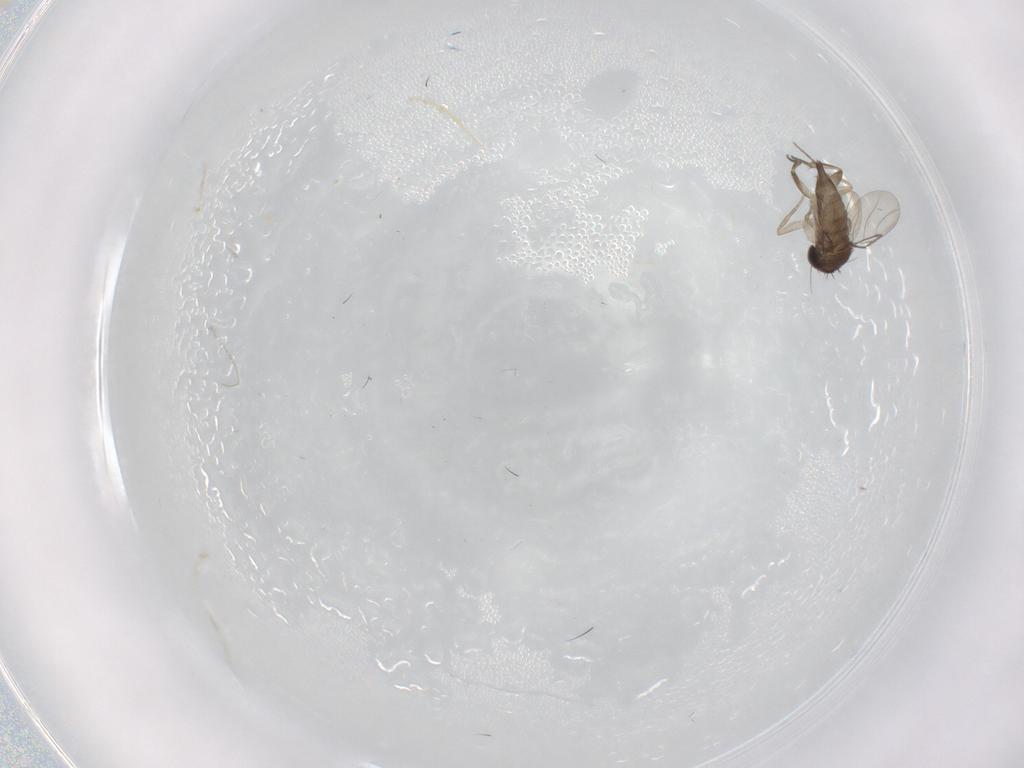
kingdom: Animalia
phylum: Arthropoda
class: Insecta
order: Diptera
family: Phoridae
